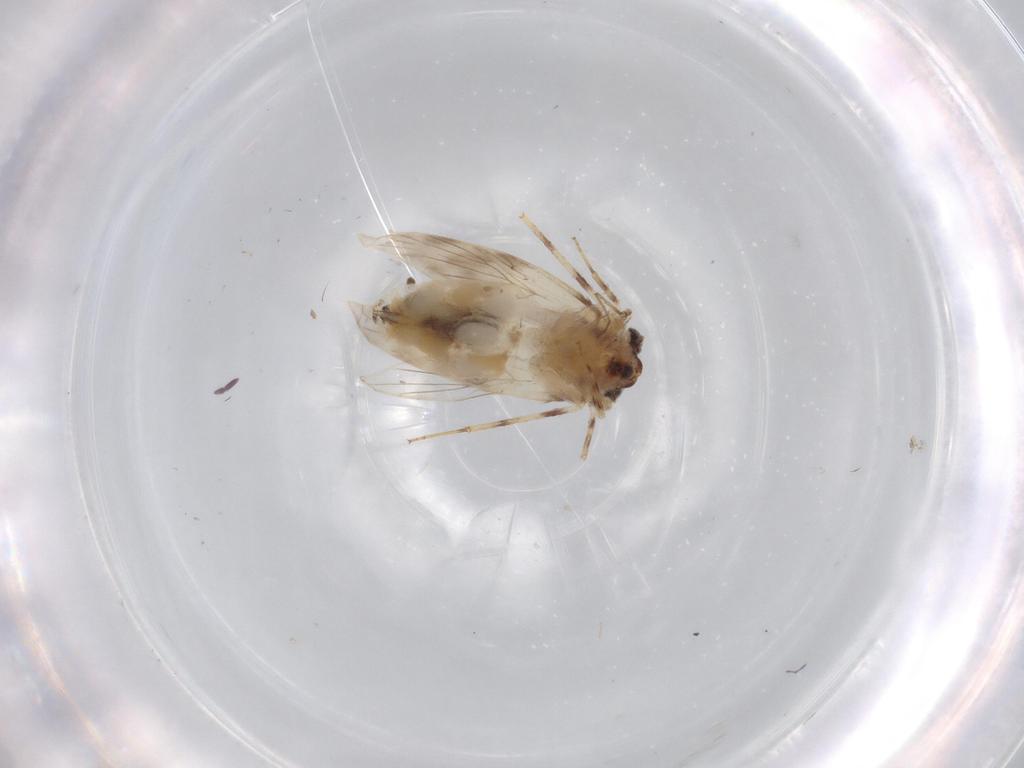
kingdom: Animalia
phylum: Arthropoda
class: Insecta
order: Psocodea
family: Lepidopsocidae
